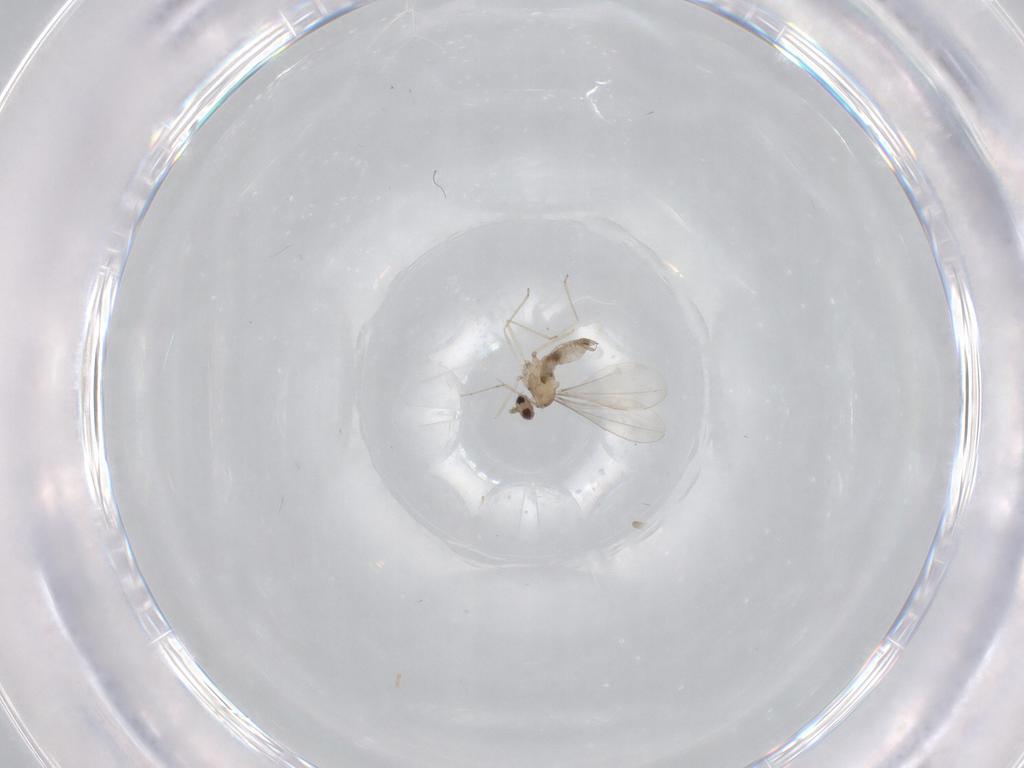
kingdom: Animalia
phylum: Arthropoda
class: Insecta
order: Diptera
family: Cecidomyiidae
